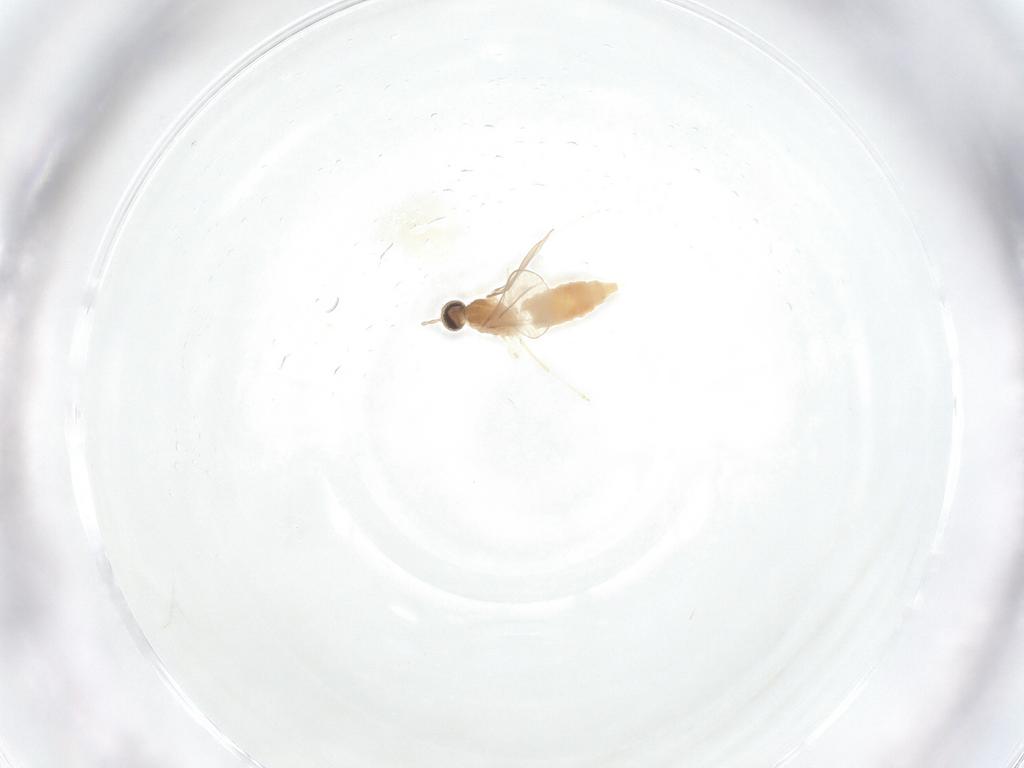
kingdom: Animalia
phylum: Arthropoda
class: Insecta
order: Diptera
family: Cecidomyiidae
